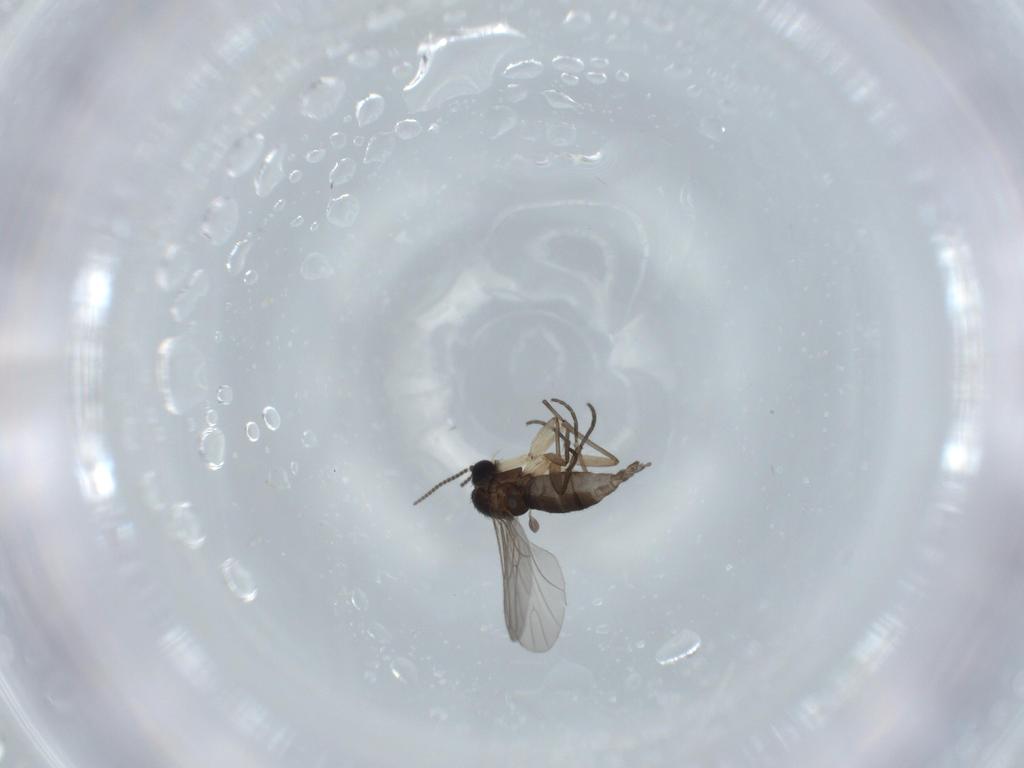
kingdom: Animalia
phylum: Arthropoda
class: Insecta
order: Diptera
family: Sciaridae
